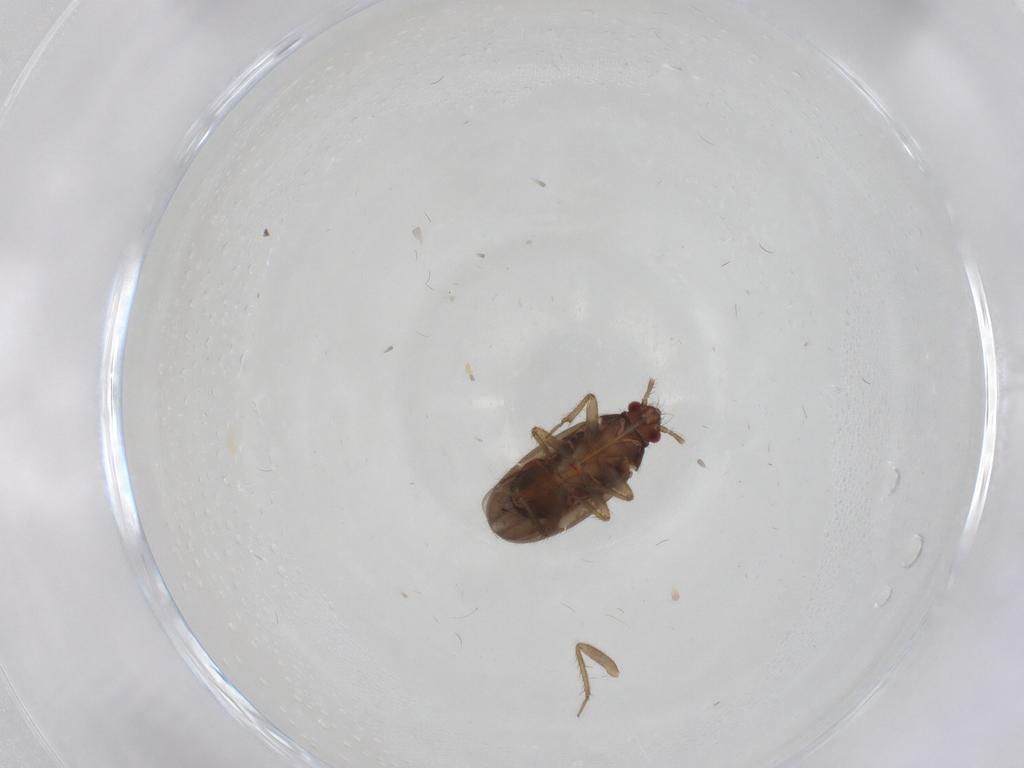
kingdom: Animalia
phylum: Arthropoda
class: Insecta
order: Hemiptera
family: Ceratocombidae
